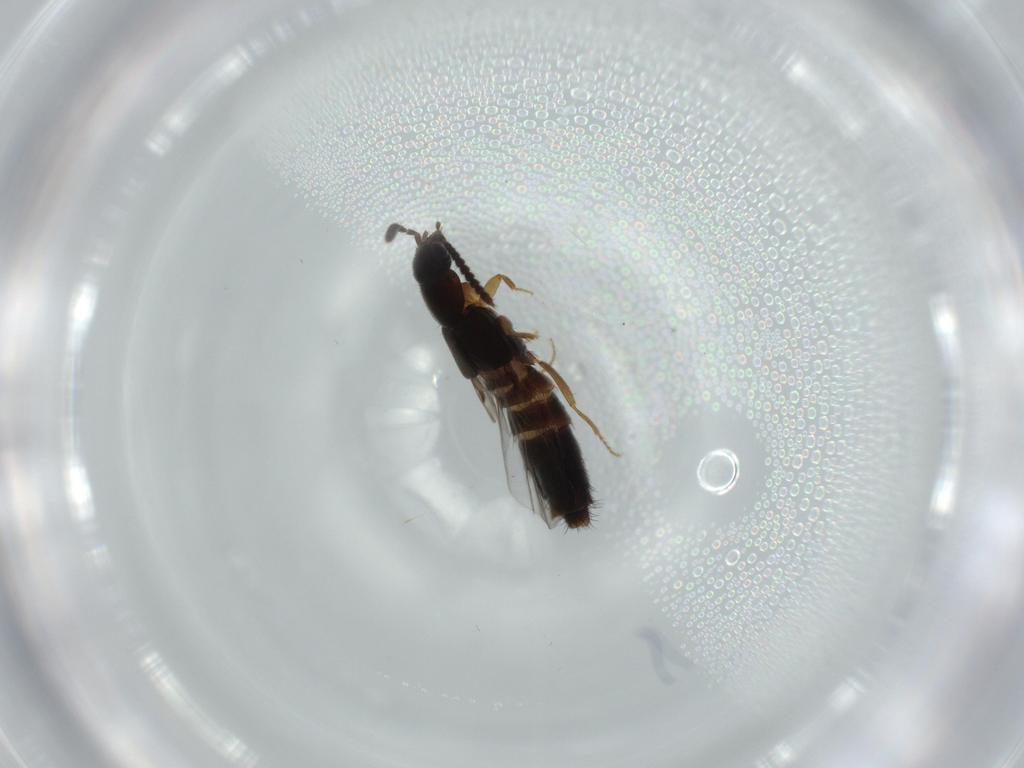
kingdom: Animalia
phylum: Arthropoda
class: Insecta
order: Coleoptera
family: Staphylinidae
